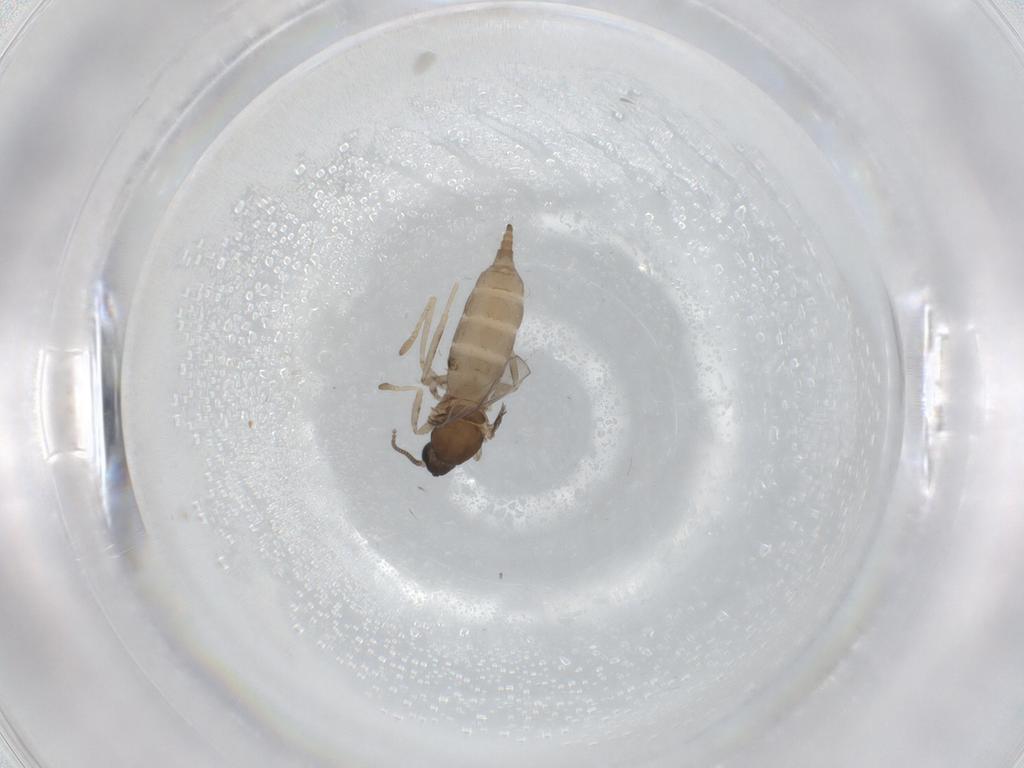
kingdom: Animalia
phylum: Arthropoda
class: Insecta
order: Diptera
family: Cecidomyiidae
